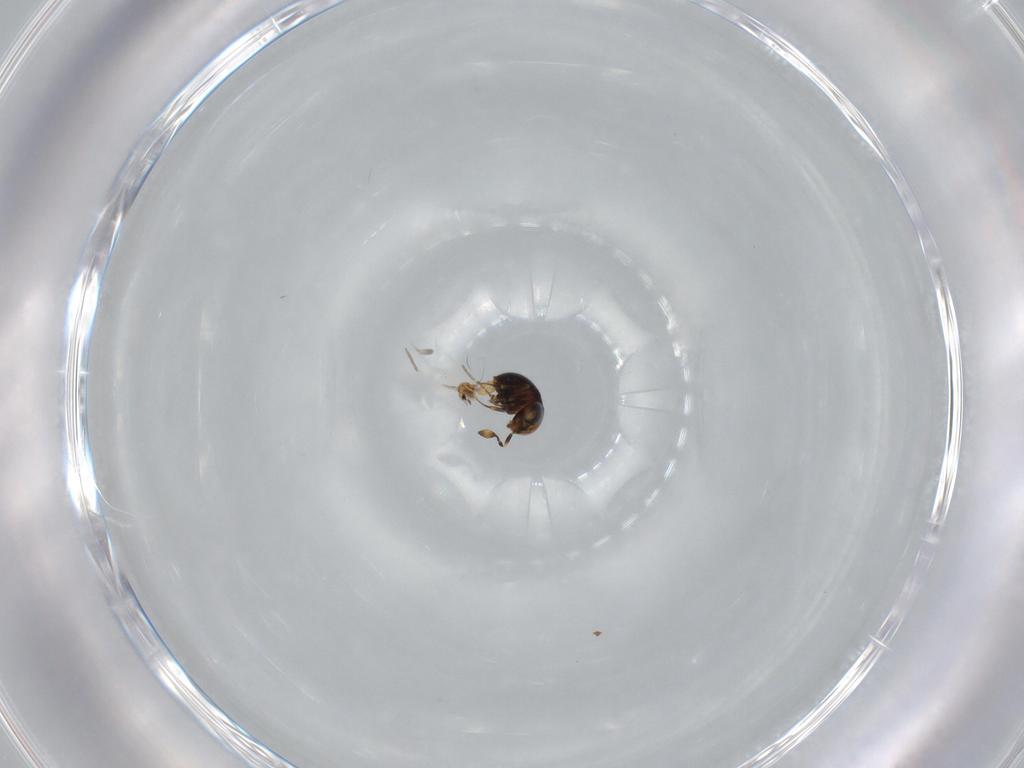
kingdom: Animalia
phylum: Arthropoda
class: Insecta
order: Hymenoptera
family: Scelionidae
